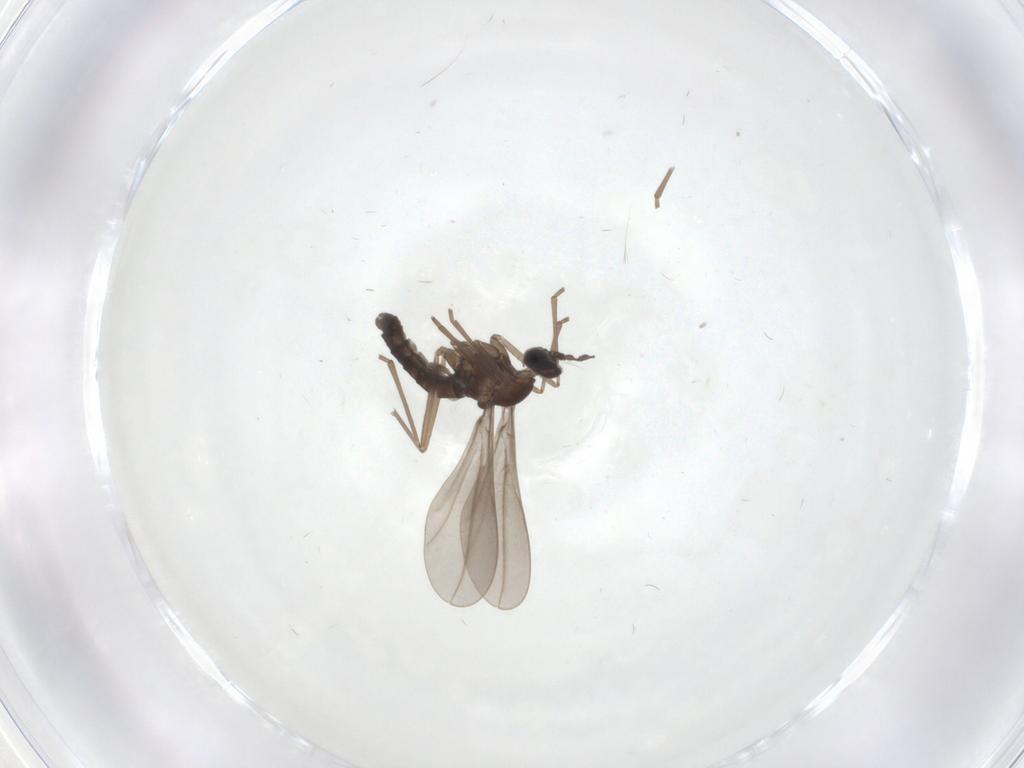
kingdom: Animalia
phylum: Arthropoda
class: Insecta
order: Diptera
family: Cecidomyiidae
